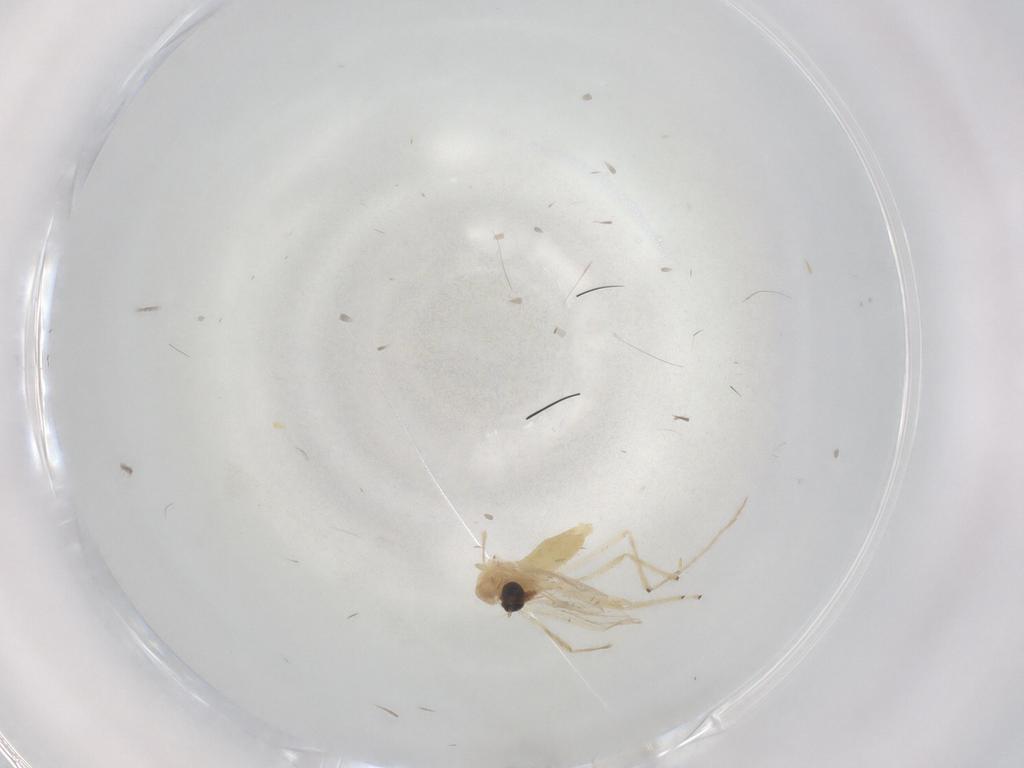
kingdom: Animalia
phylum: Arthropoda
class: Insecta
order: Diptera
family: Chironomidae
